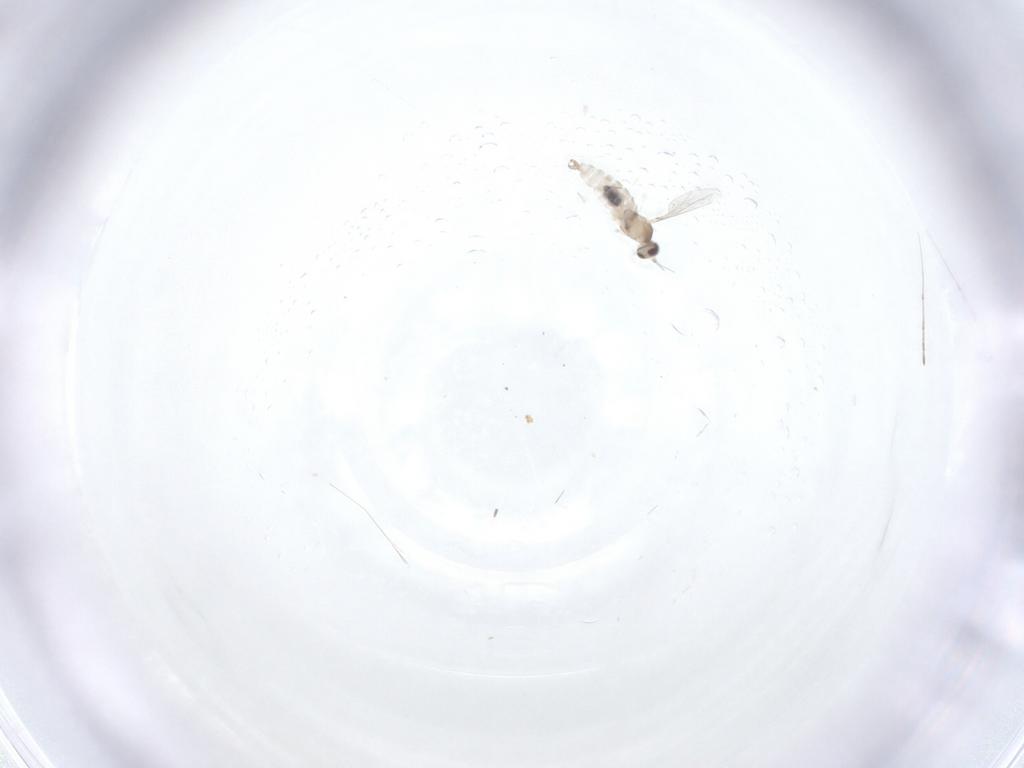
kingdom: Animalia
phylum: Arthropoda
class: Insecta
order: Diptera
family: Cecidomyiidae
